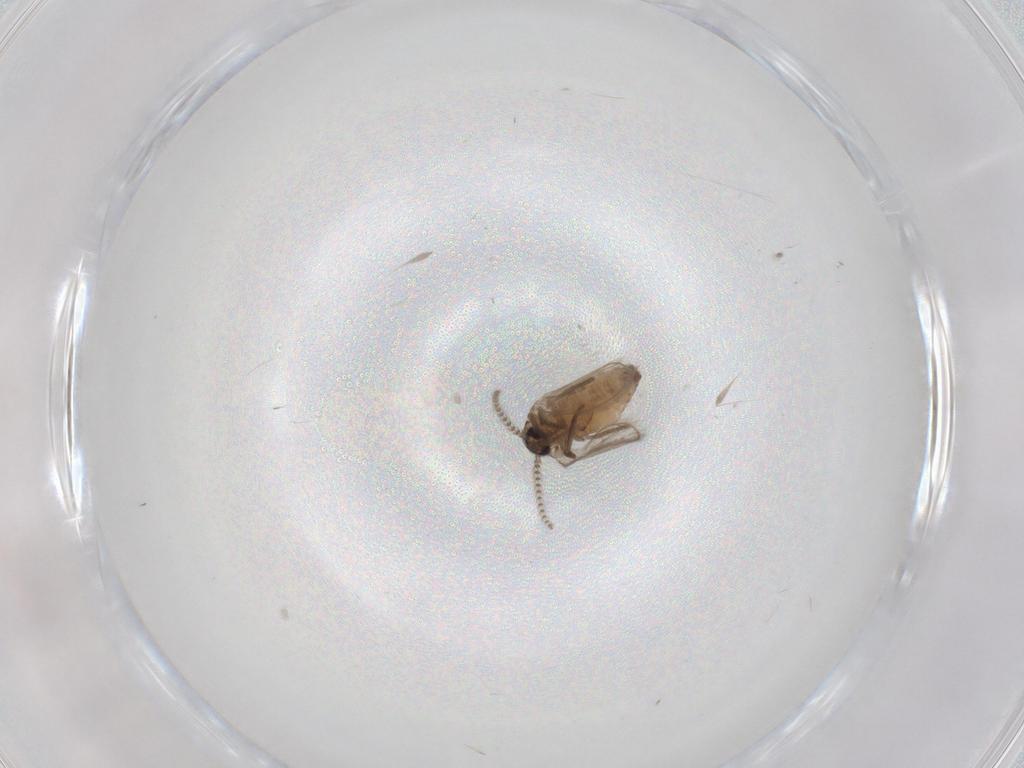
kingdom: Animalia
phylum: Arthropoda
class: Insecta
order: Diptera
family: Psychodidae
